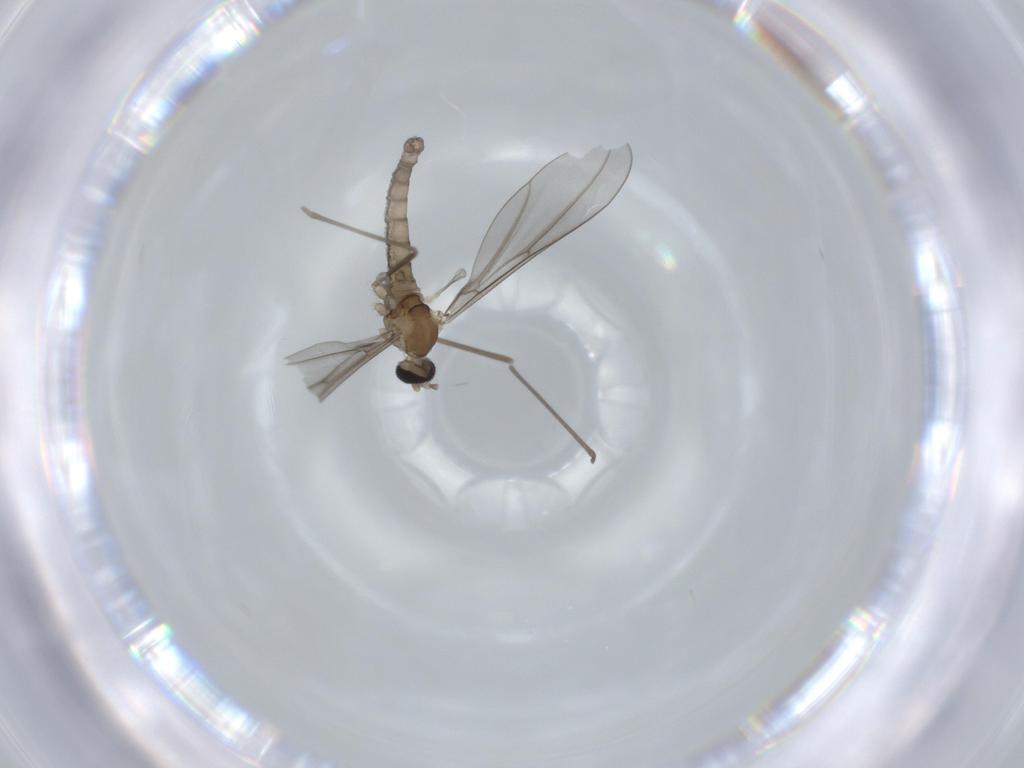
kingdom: Animalia
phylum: Arthropoda
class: Insecta
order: Diptera
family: Cecidomyiidae
